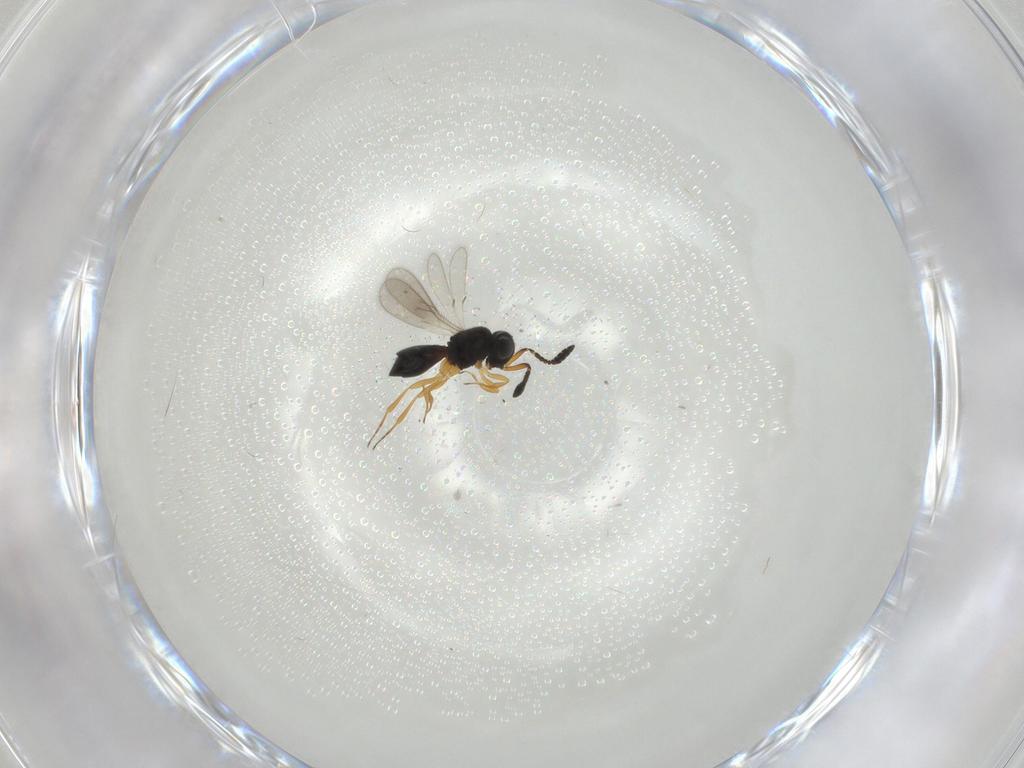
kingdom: Animalia
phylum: Arthropoda
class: Insecta
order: Hymenoptera
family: Scelionidae
